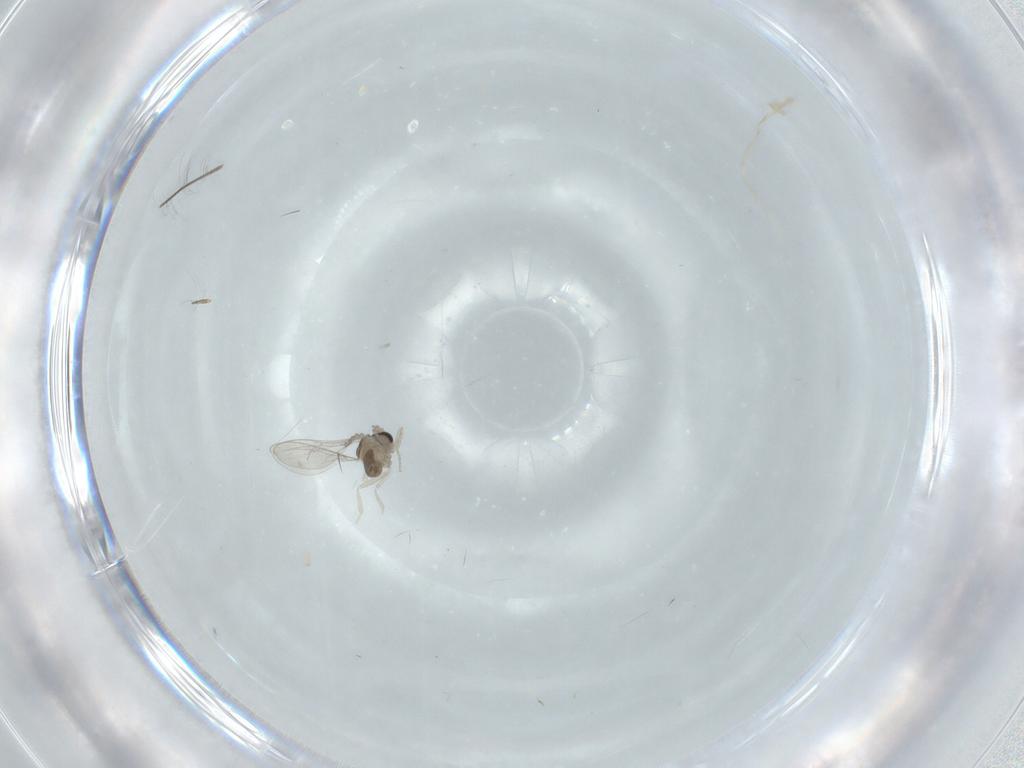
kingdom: Animalia
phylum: Arthropoda
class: Insecta
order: Diptera
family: Cecidomyiidae
